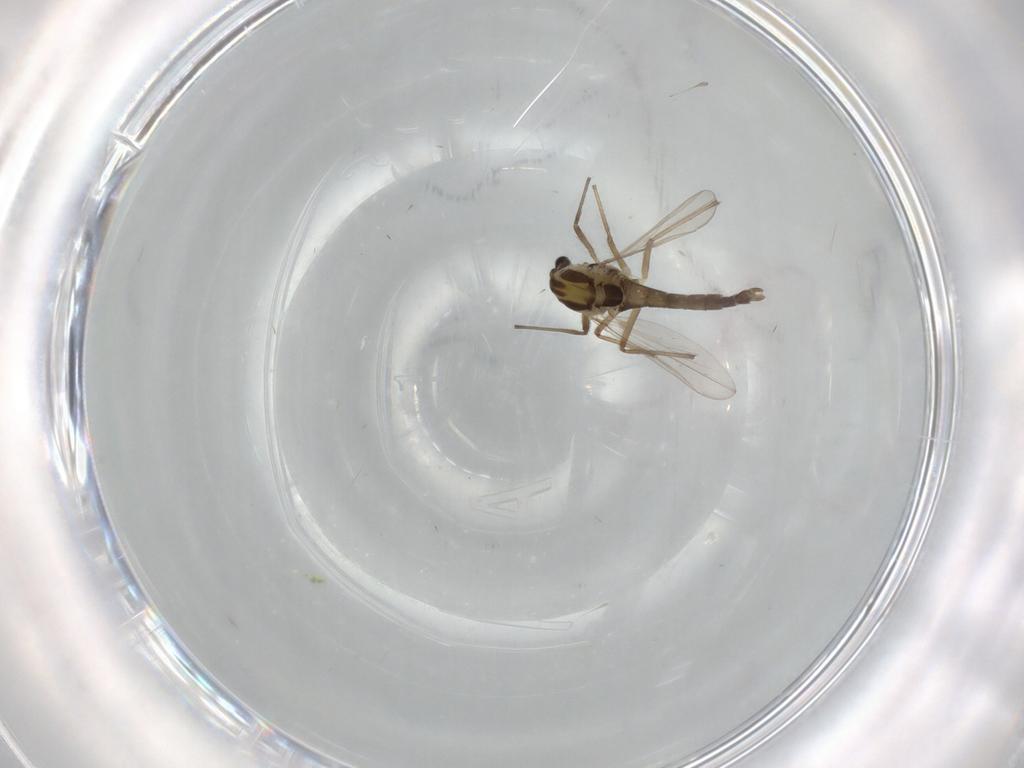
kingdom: Animalia
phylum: Arthropoda
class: Insecta
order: Diptera
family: Chironomidae
